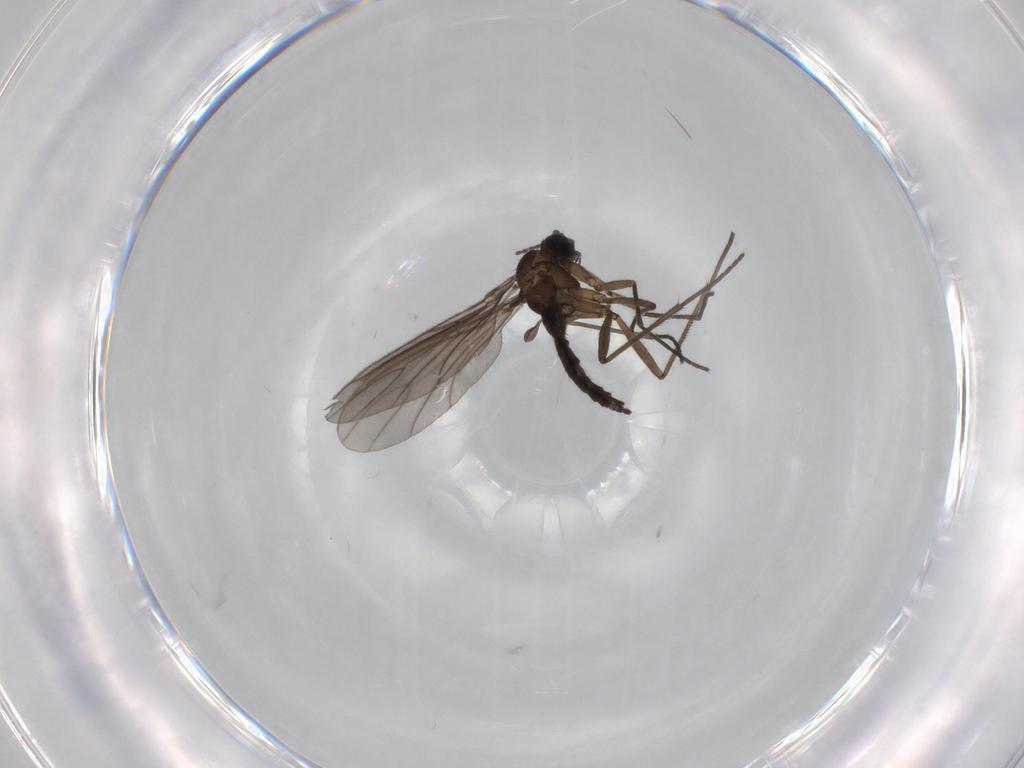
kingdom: Animalia
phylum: Arthropoda
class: Insecta
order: Diptera
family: Sciaridae
